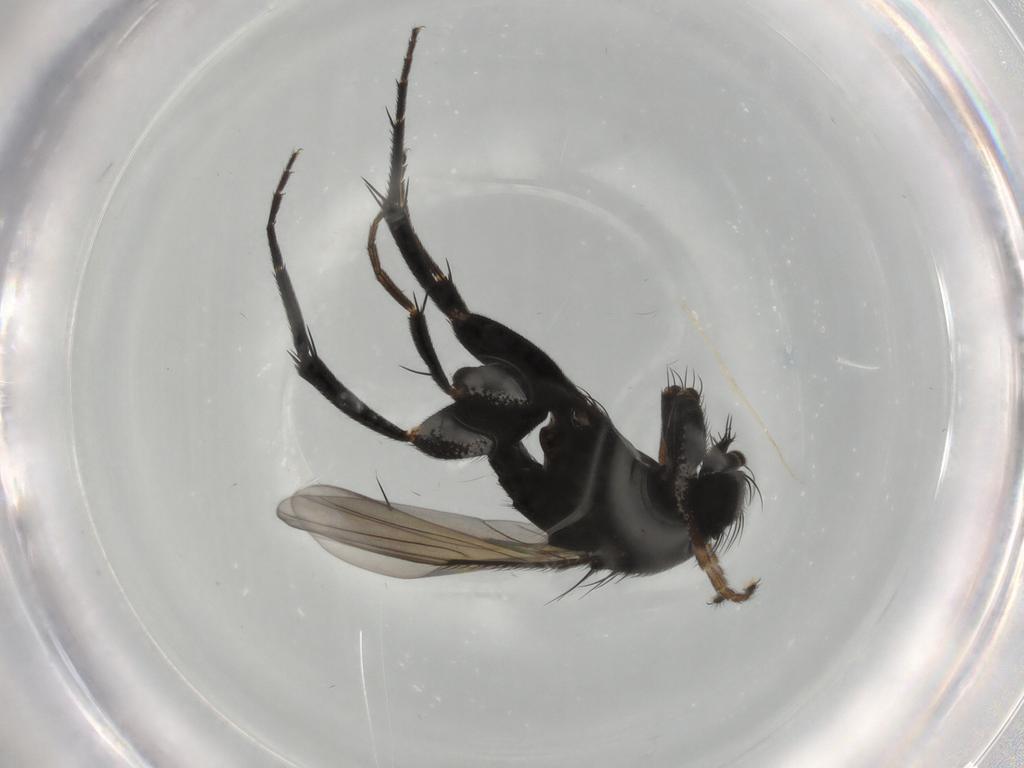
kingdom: Animalia
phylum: Arthropoda
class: Insecta
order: Diptera
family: Phoridae
